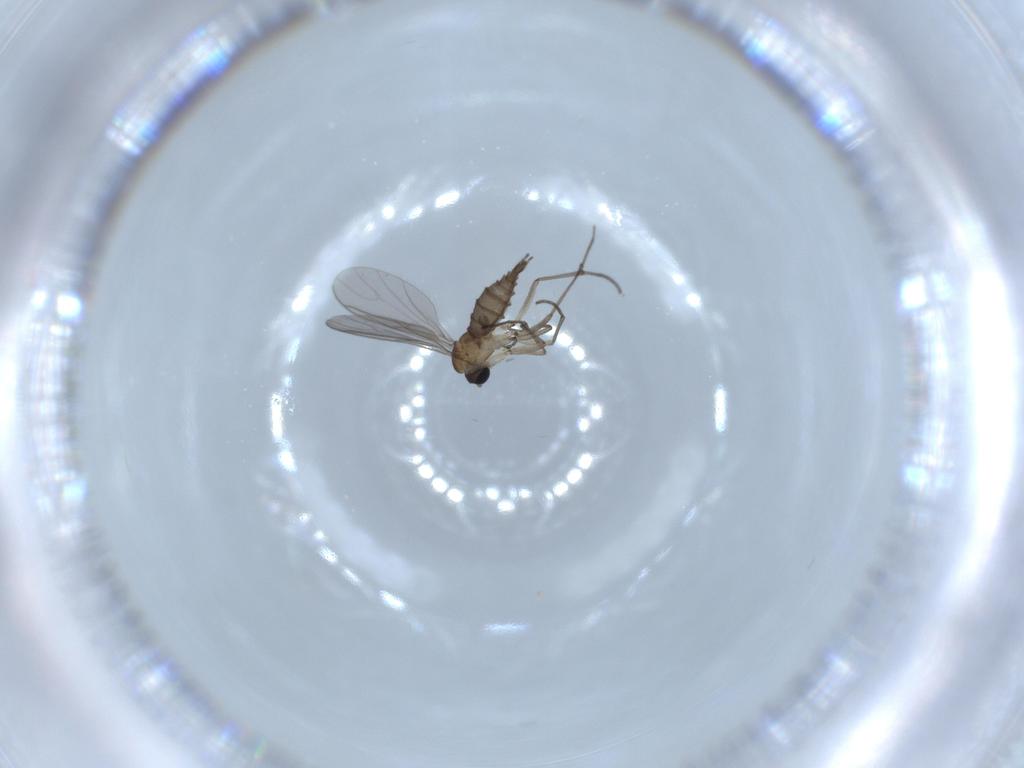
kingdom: Animalia
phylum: Arthropoda
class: Insecta
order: Diptera
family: Sciaridae
